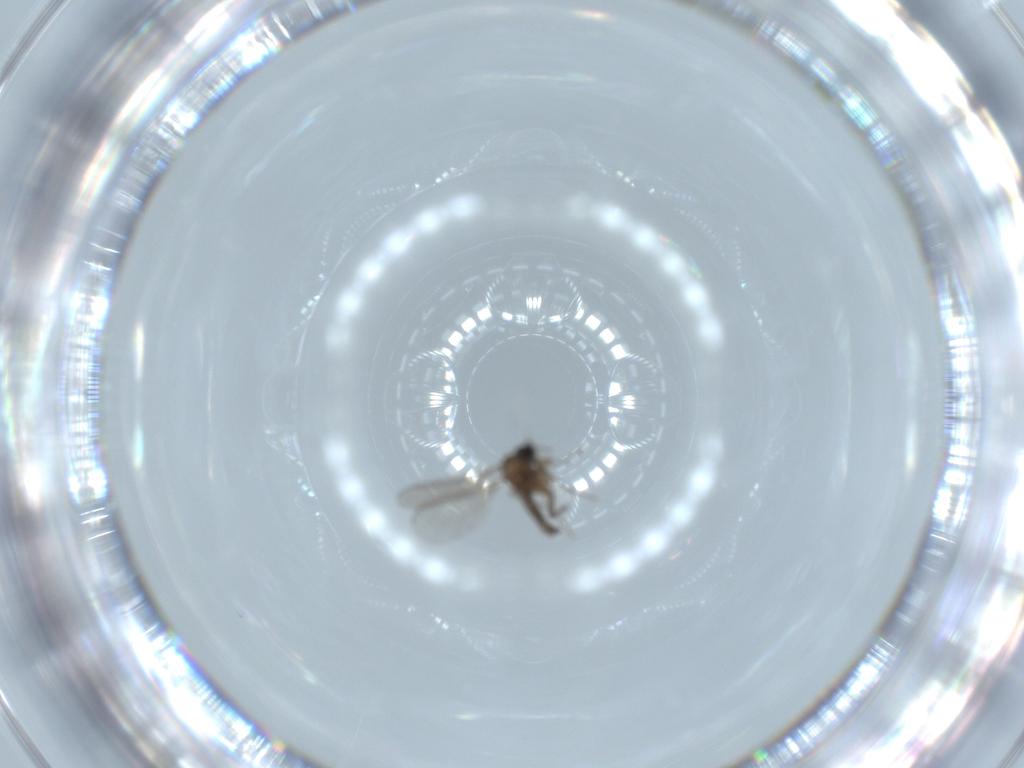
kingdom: Animalia
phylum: Arthropoda
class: Insecta
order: Diptera
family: Sciaridae
